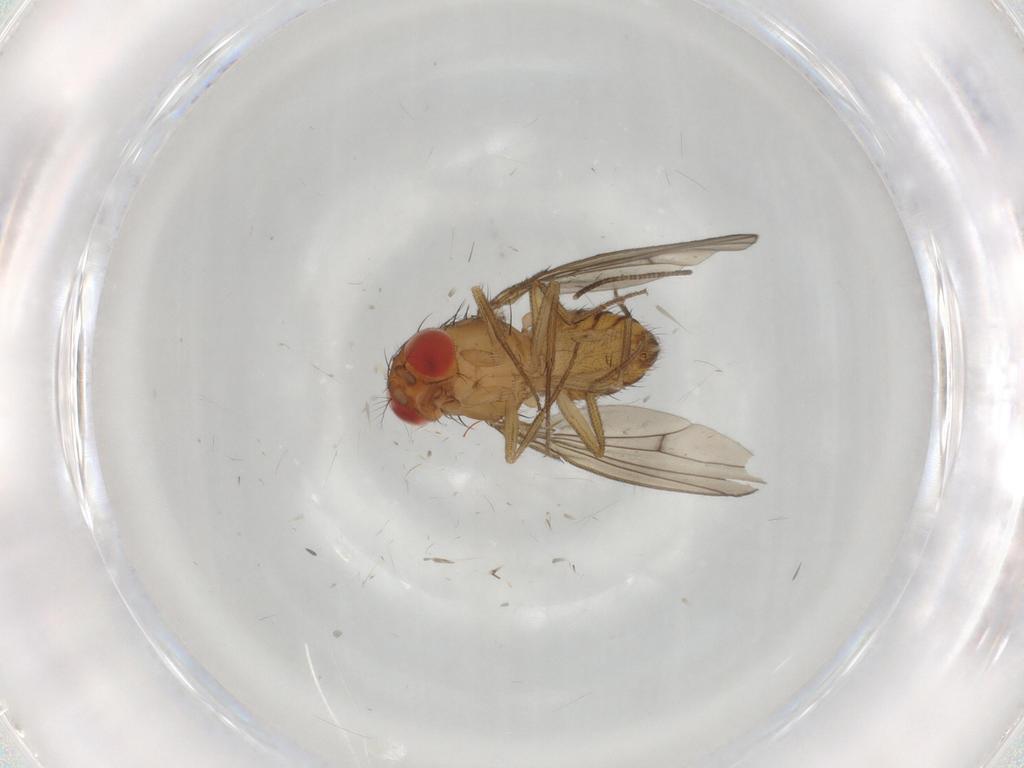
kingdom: Animalia
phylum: Arthropoda
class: Insecta
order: Diptera
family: Drosophilidae
